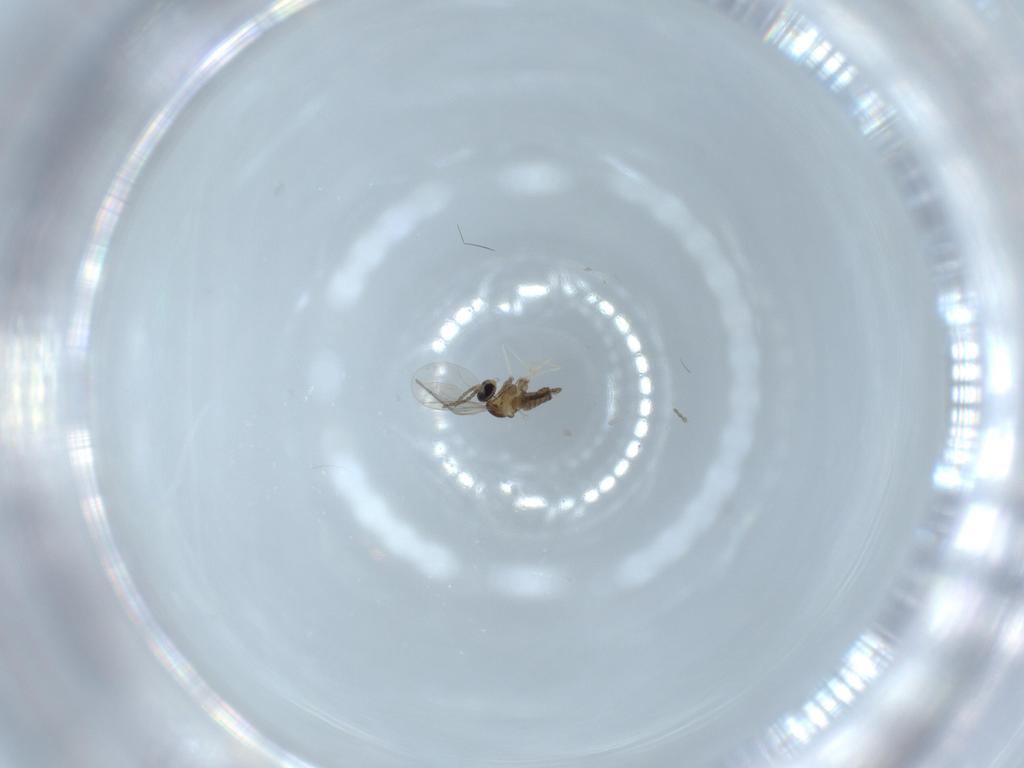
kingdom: Animalia
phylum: Arthropoda
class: Insecta
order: Diptera
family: Cecidomyiidae
